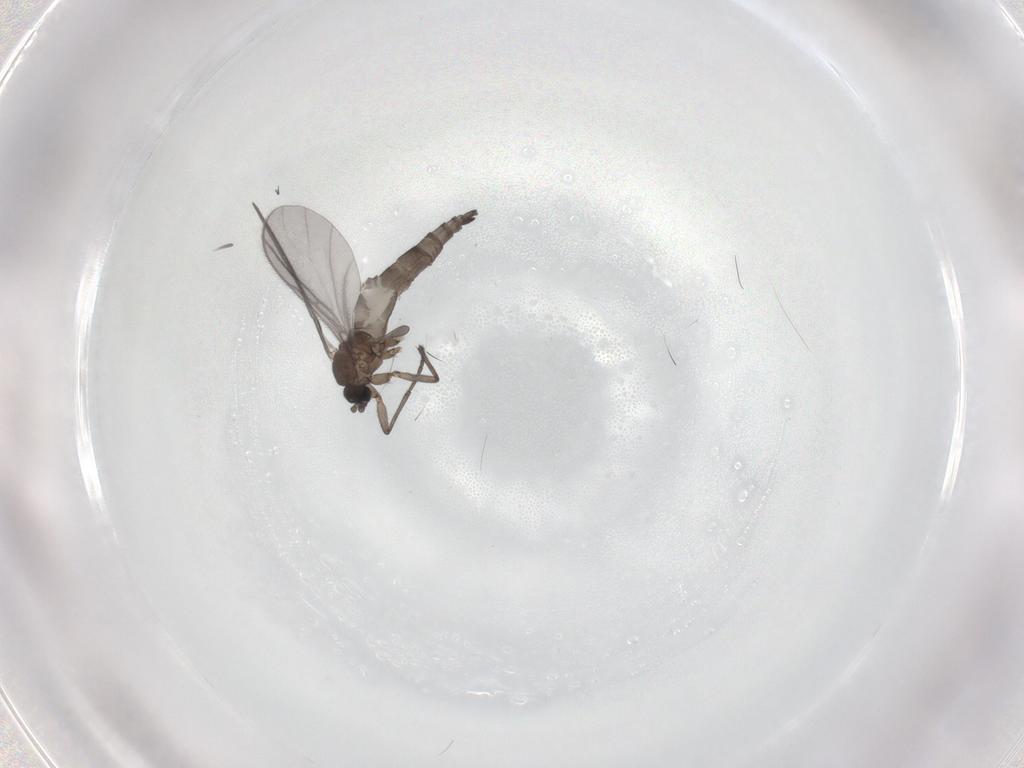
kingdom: Animalia
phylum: Arthropoda
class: Insecta
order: Diptera
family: Sciaridae
